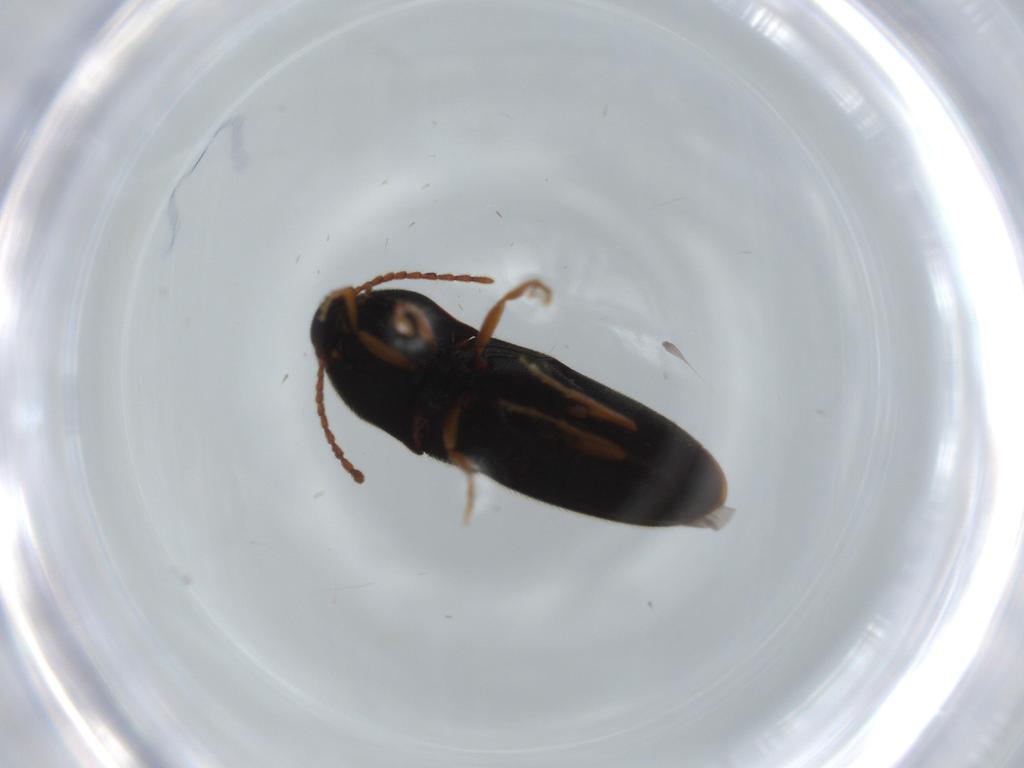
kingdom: Animalia
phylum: Arthropoda
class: Insecta
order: Coleoptera
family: Elateridae
